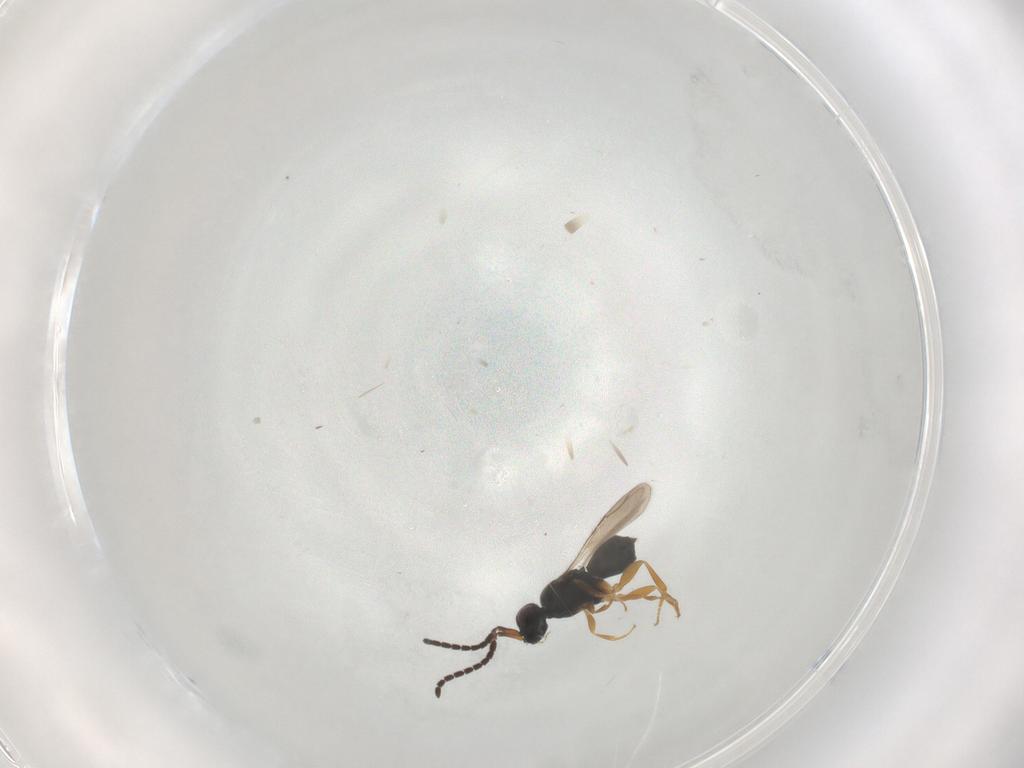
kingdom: Animalia
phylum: Arthropoda
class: Insecta
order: Hymenoptera
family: Ceraphronidae
